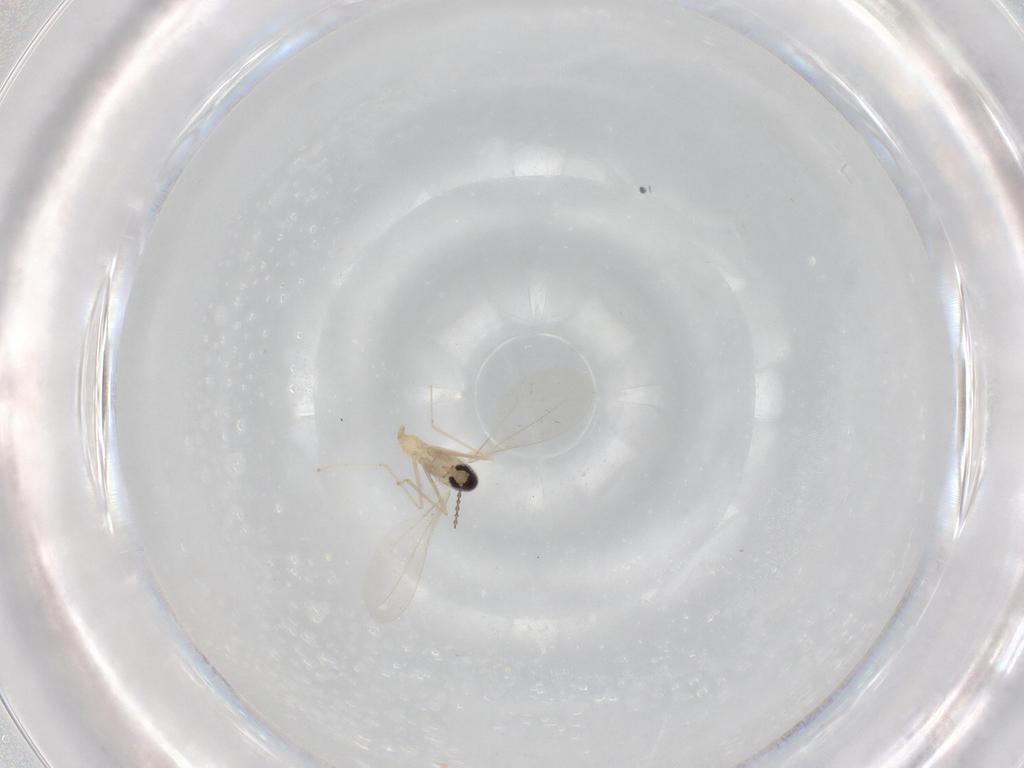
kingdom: Animalia
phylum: Arthropoda
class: Insecta
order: Diptera
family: Cecidomyiidae
